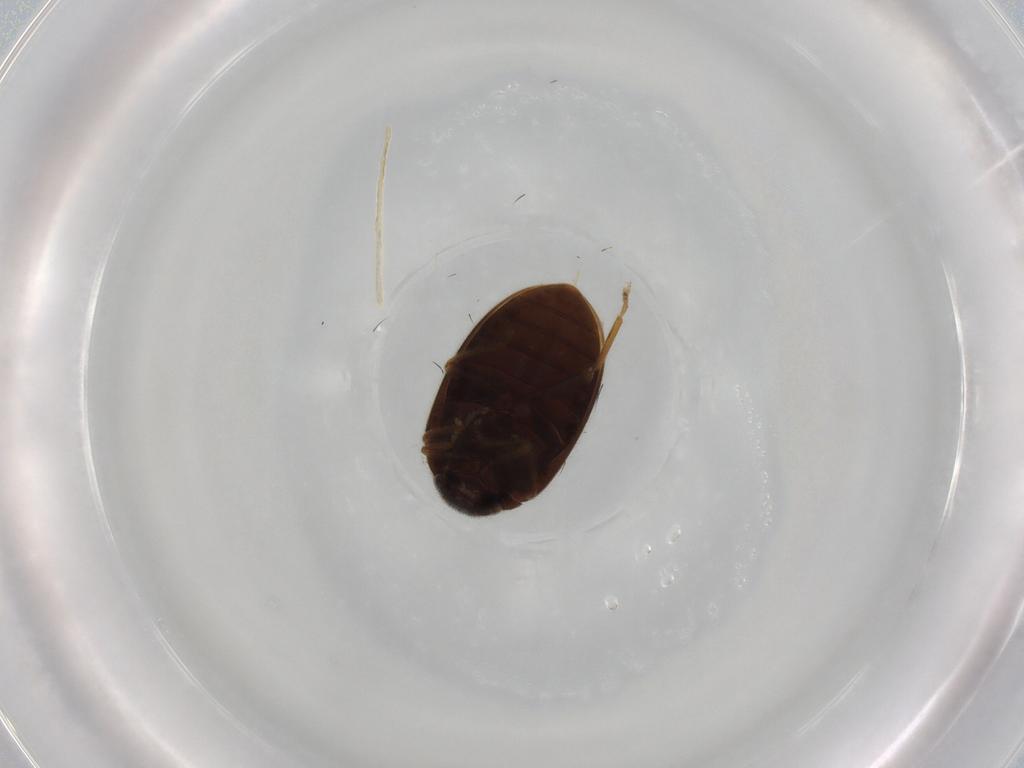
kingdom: Animalia
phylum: Arthropoda
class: Insecta
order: Coleoptera
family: Scirtidae
